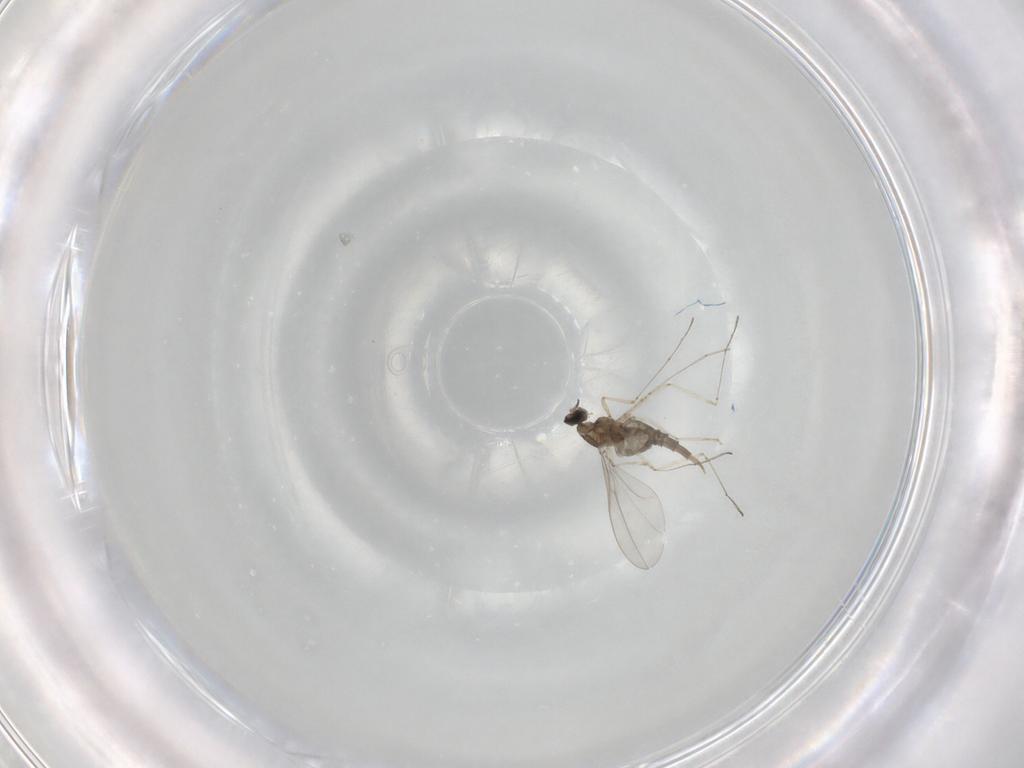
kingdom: Animalia
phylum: Arthropoda
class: Insecta
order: Diptera
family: Cecidomyiidae
